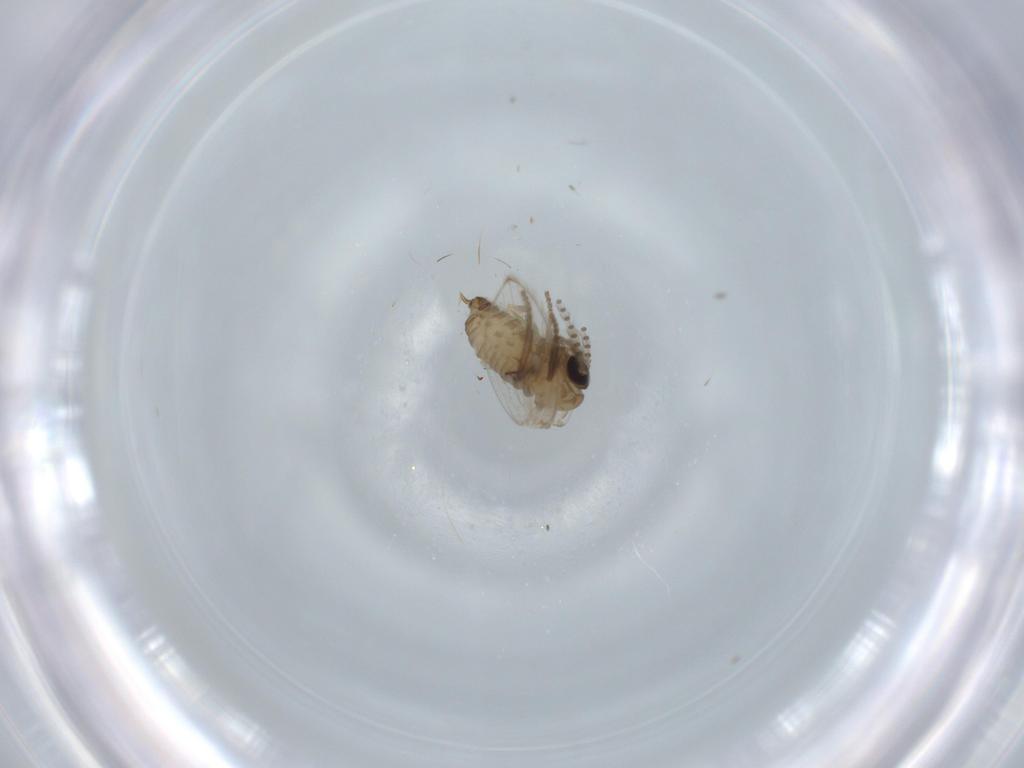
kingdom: Animalia
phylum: Arthropoda
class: Insecta
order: Diptera
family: Psychodidae
